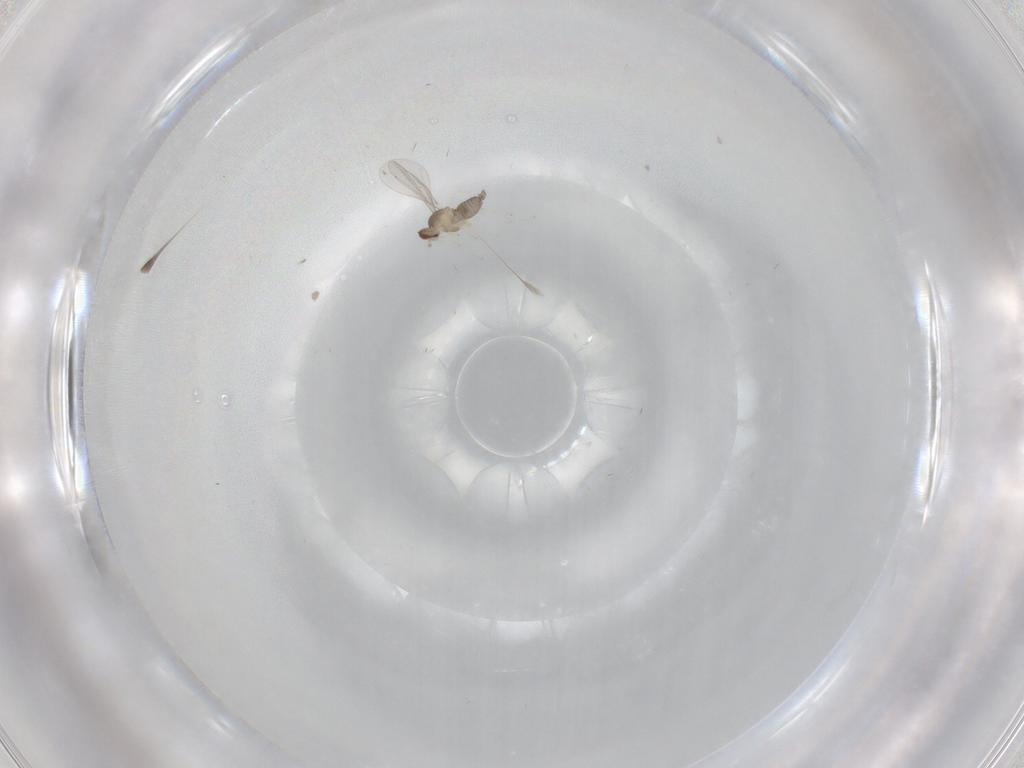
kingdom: Animalia
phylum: Arthropoda
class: Insecta
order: Diptera
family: Cecidomyiidae
